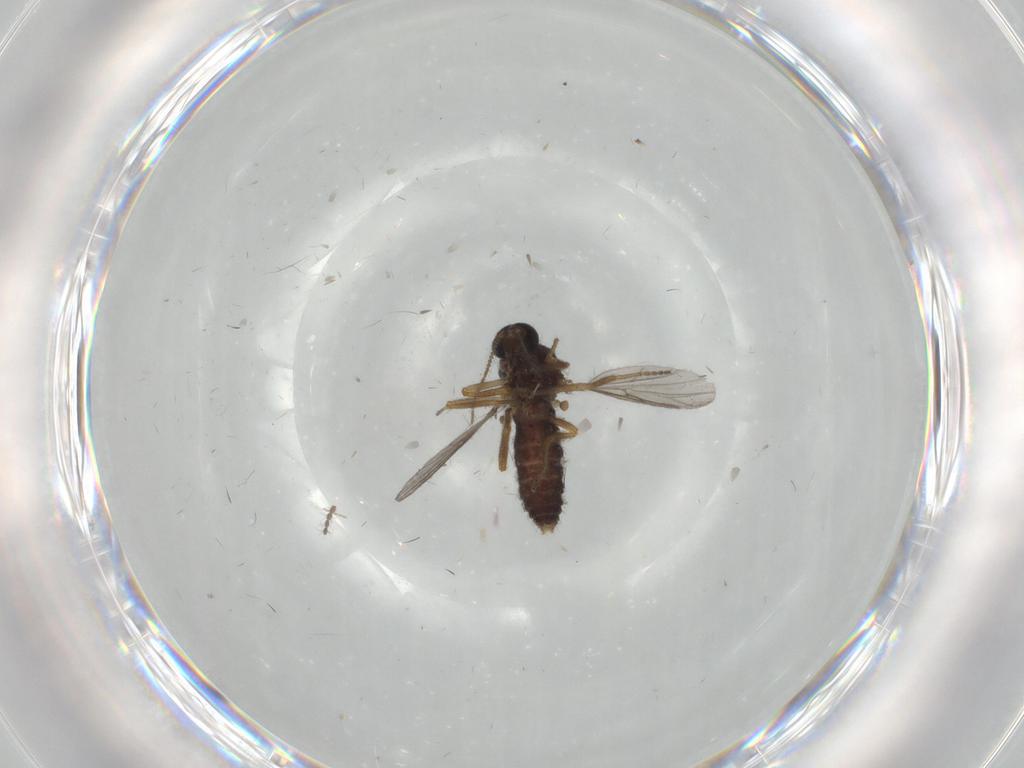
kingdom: Animalia
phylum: Arthropoda
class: Insecta
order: Diptera
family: Ceratopogonidae
